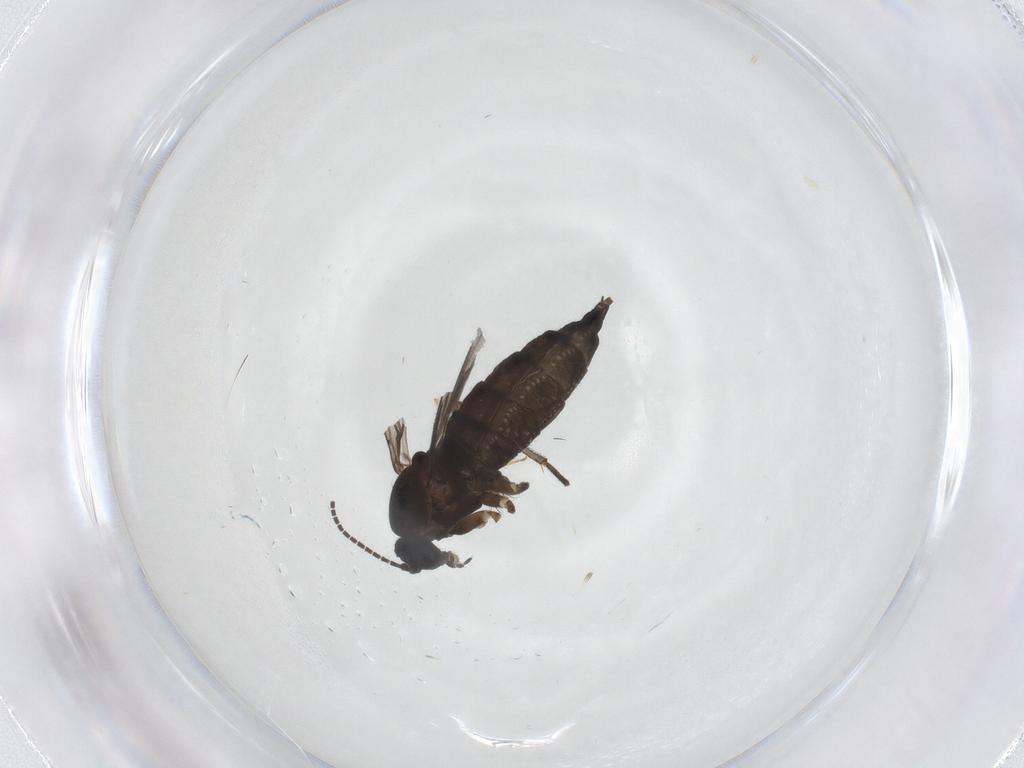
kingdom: Animalia
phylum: Arthropoda
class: Insecta
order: Diptera
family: Sciaridae
